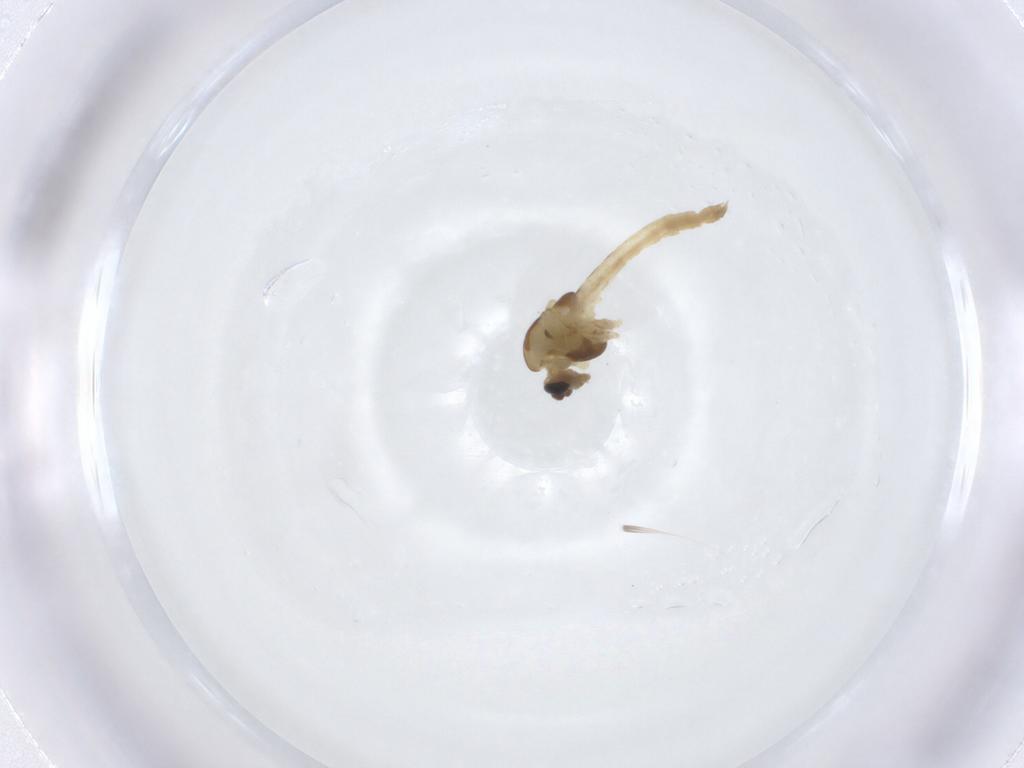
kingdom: Animalia
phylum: Arthropoda
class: Insecta
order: Diptera
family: Chironomidae
